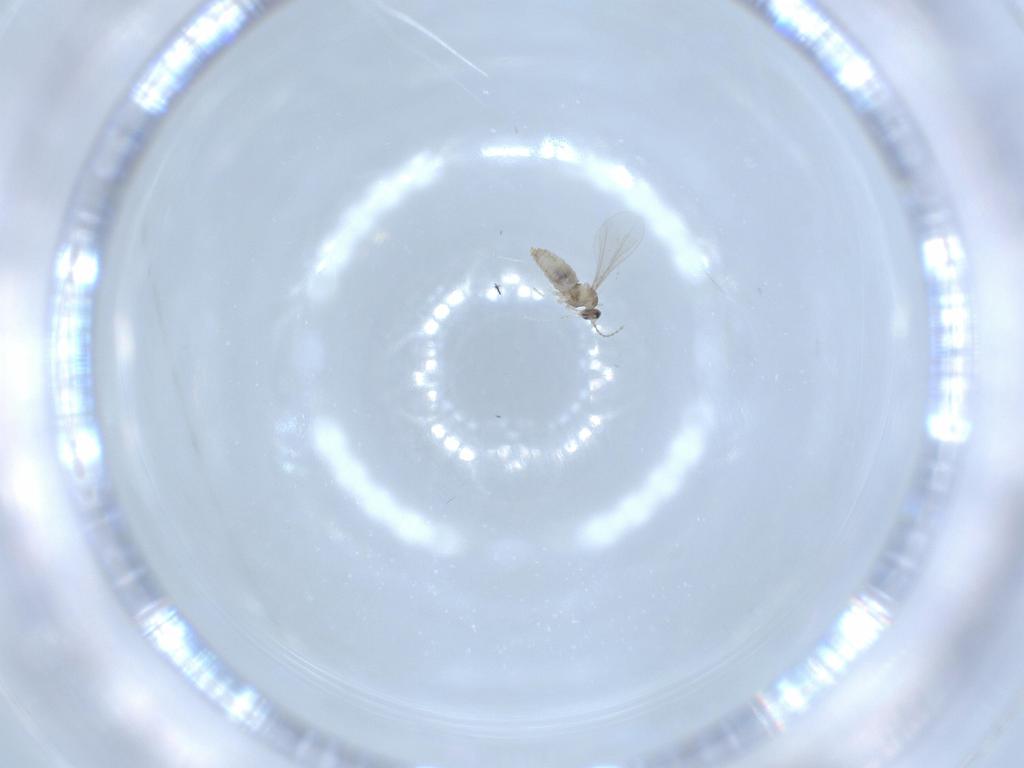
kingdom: Animalia
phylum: Arthropoda
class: Insecta
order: Diptera
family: Cecidomyiidae
